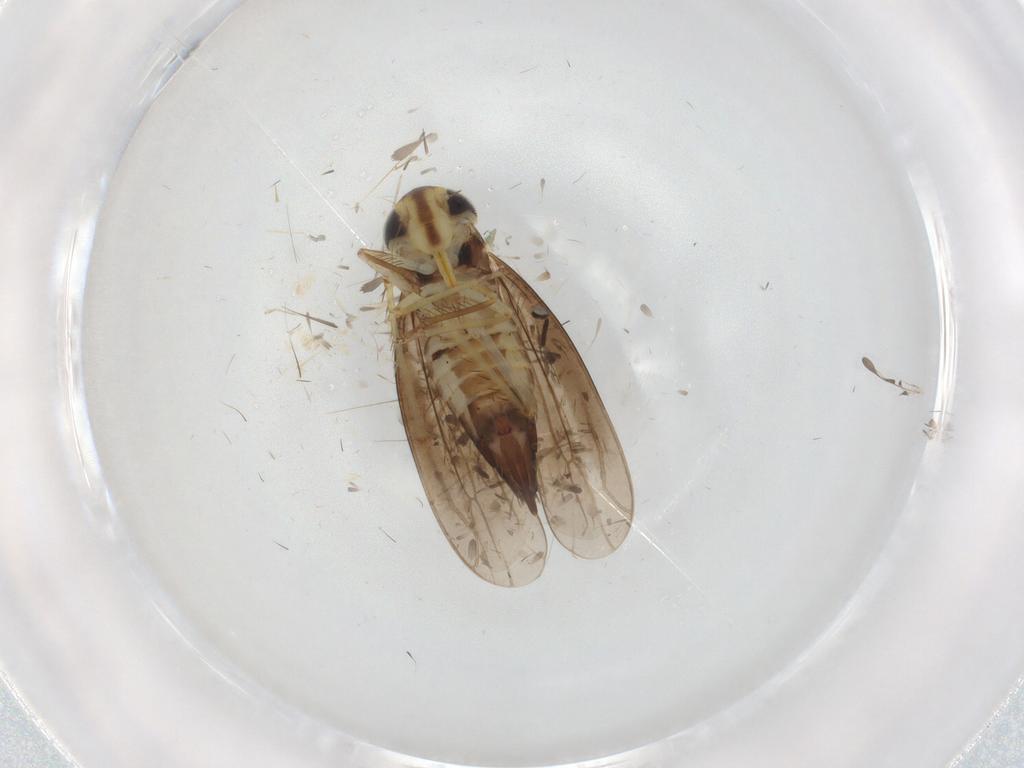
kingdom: Animalia
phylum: Arthropoda
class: Insecta
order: Hemiptera
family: Cicadellidae
